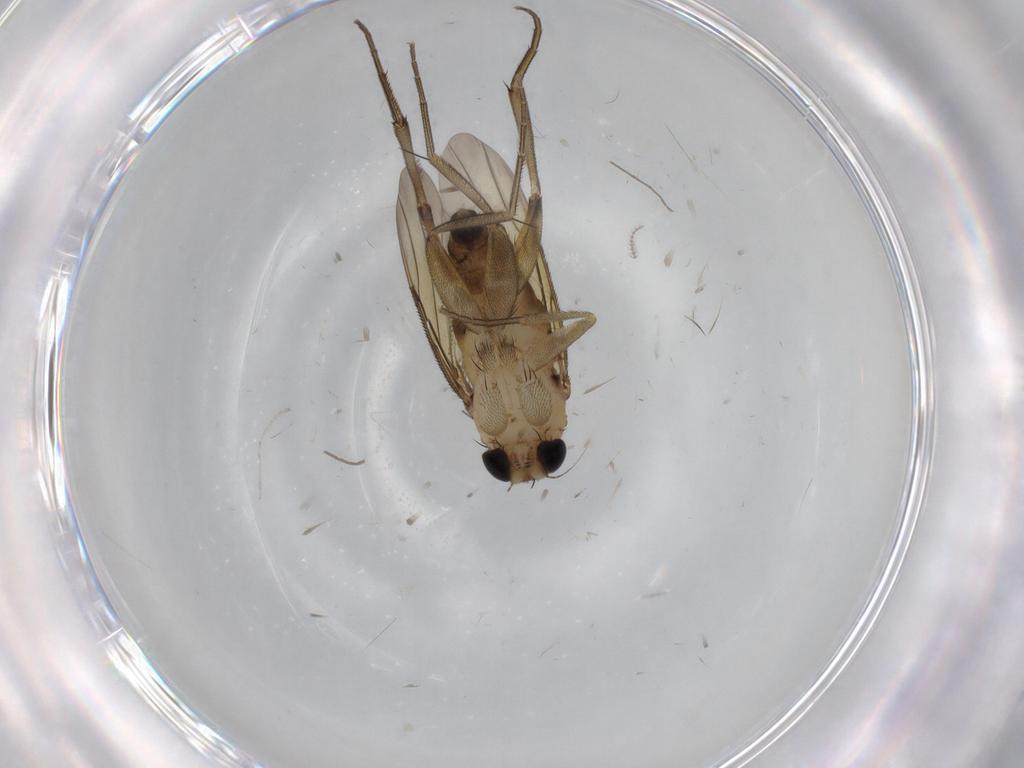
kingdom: Animalia
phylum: Arthropoda
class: Insecta
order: Diptera
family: Phoridae
